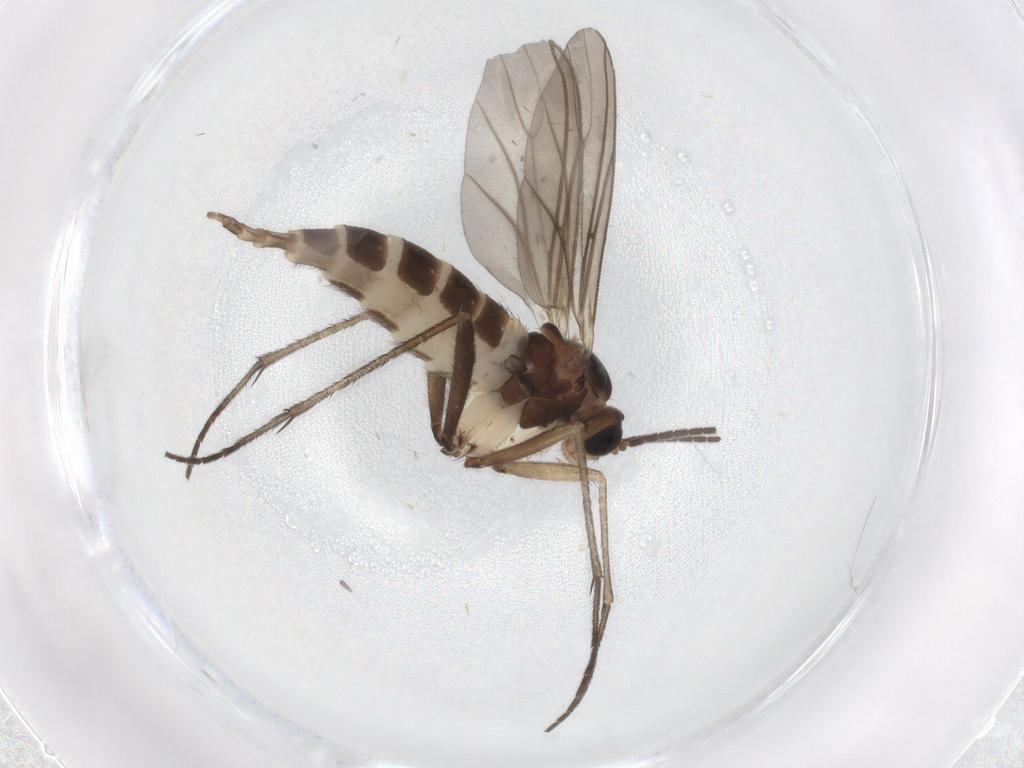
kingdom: Animalia
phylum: Arthropoda
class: Insecta
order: Diptera
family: Sciaridae
